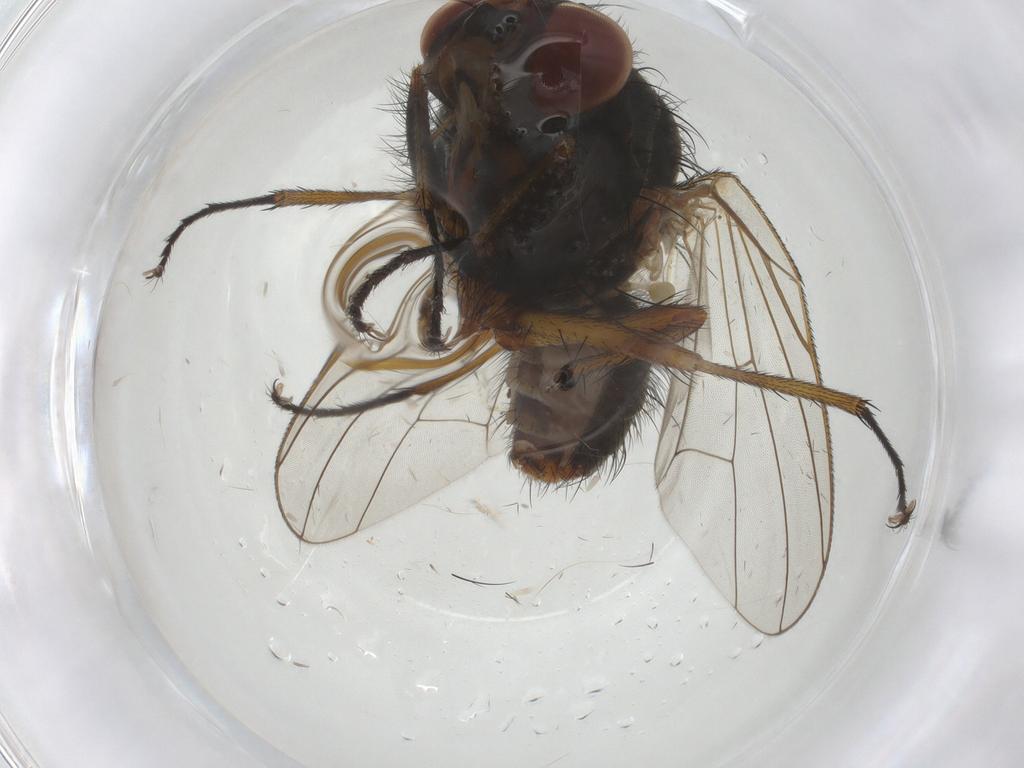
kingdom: Animalia
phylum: Arthropoda
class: Insecta
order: Diptera
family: Anthomyiidae
